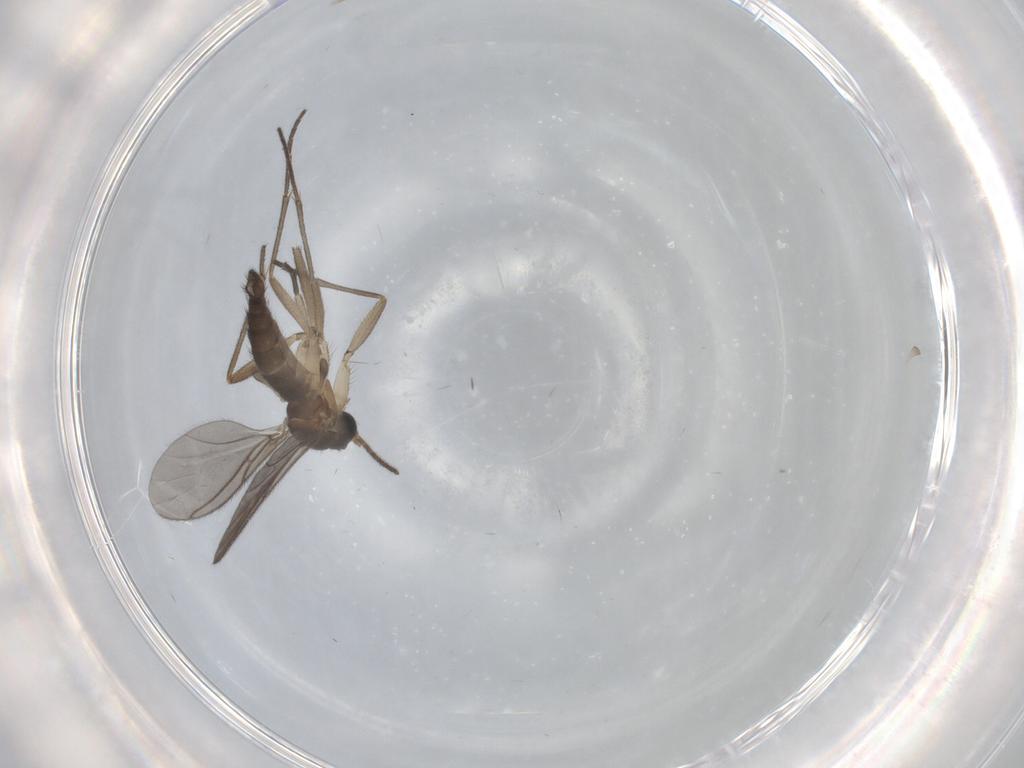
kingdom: Animalia
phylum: Arthropoda
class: Insecta
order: Diptera
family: Sciaridae
